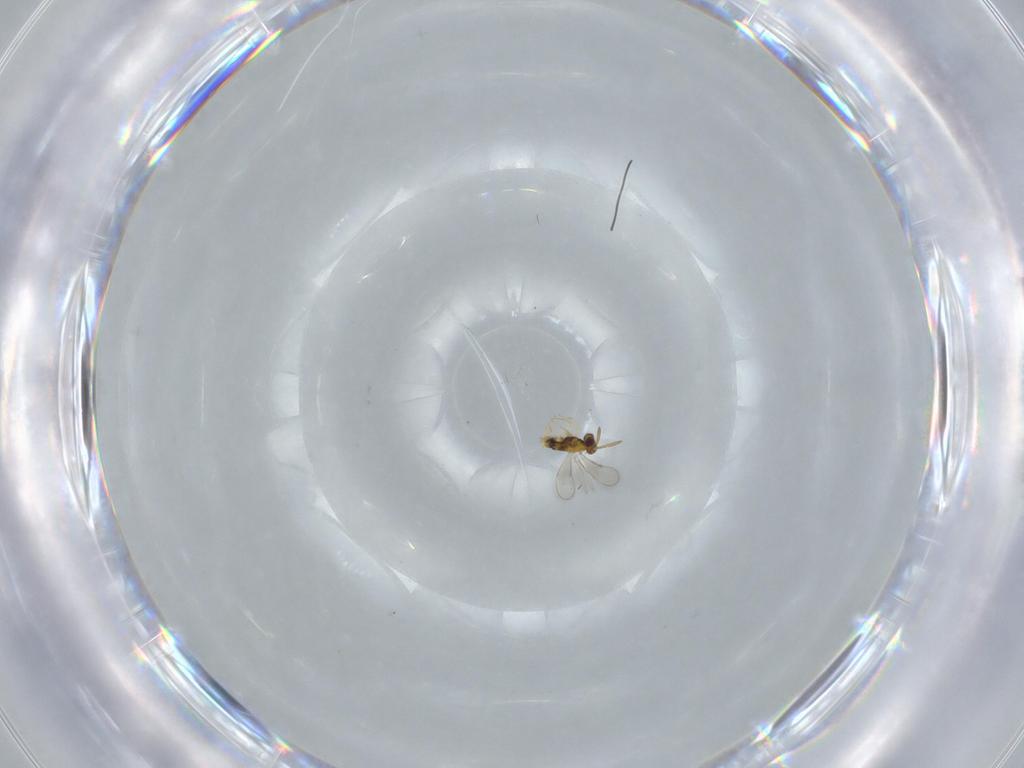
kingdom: Animalia
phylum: Arthropoda
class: Insecta
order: Hymenoptera
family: Aphelinidae
